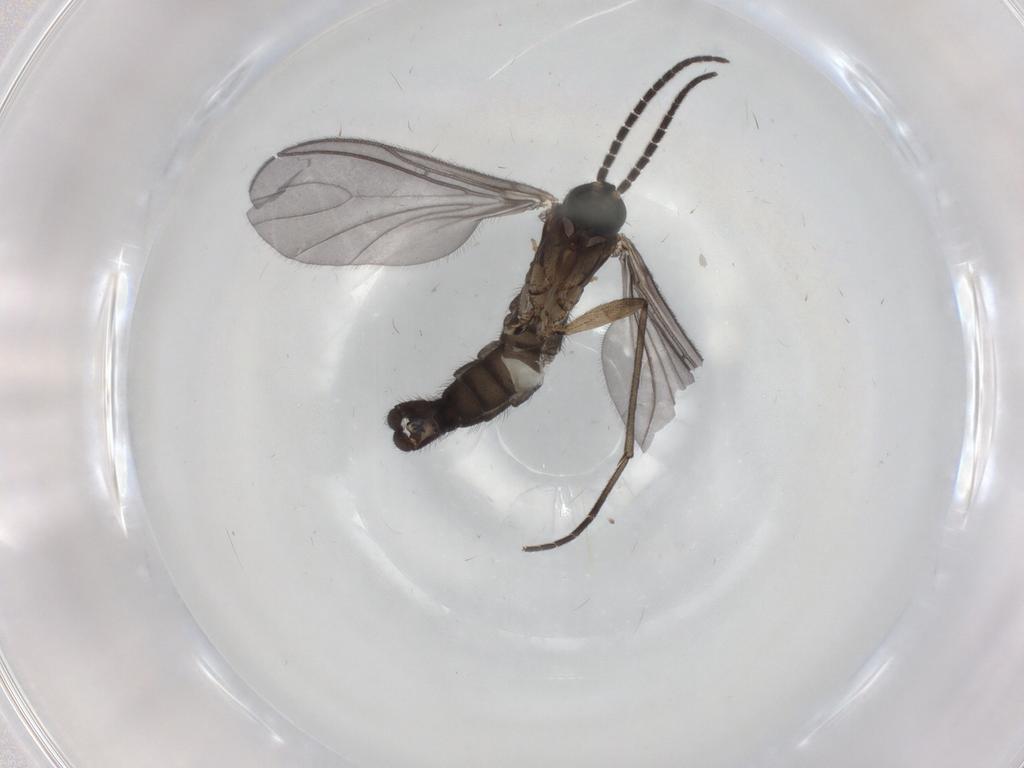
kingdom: Animalia
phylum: Arthropoda
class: Insecta
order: Diptera
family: Sciaridae
